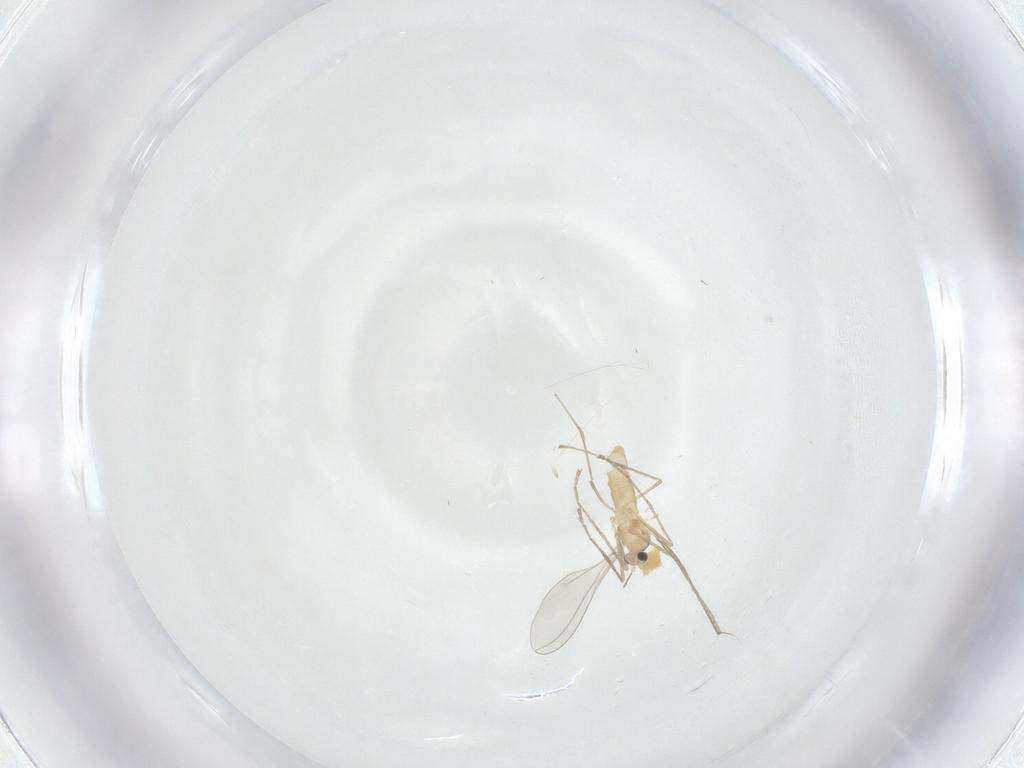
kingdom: Animalia
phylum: Arthropoda
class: Insecta
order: Diptera
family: Cecidomyiidae
